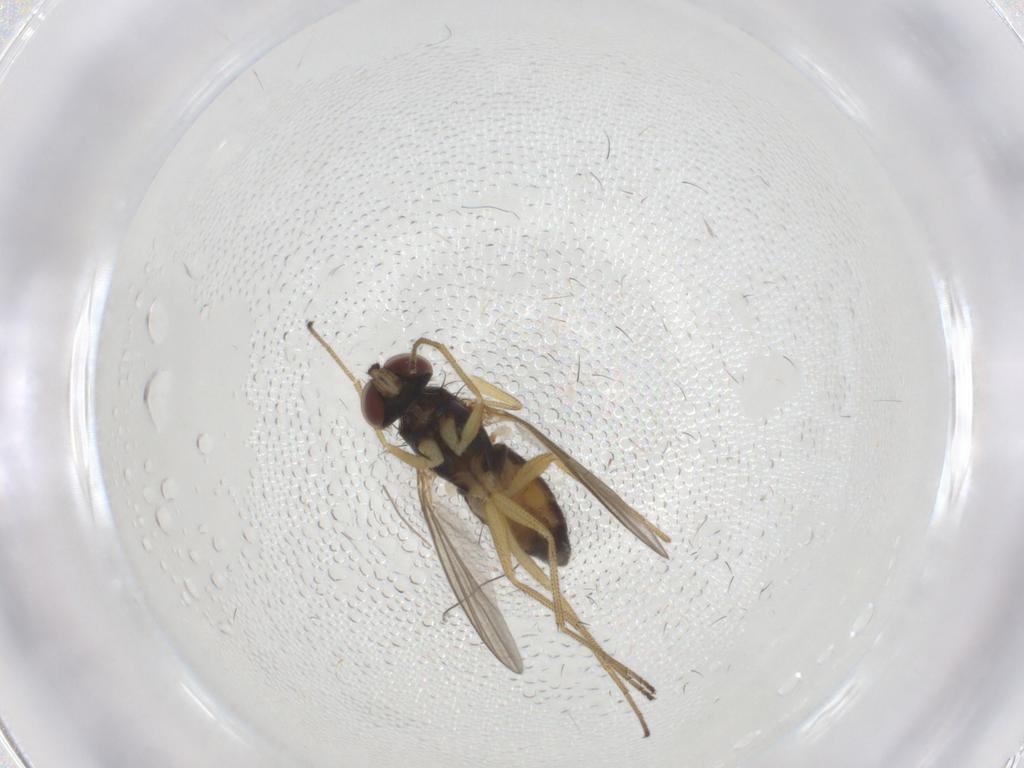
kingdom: Animalia
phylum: Arthropoda
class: Insecta
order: Diptera
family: Dolichopodidae
